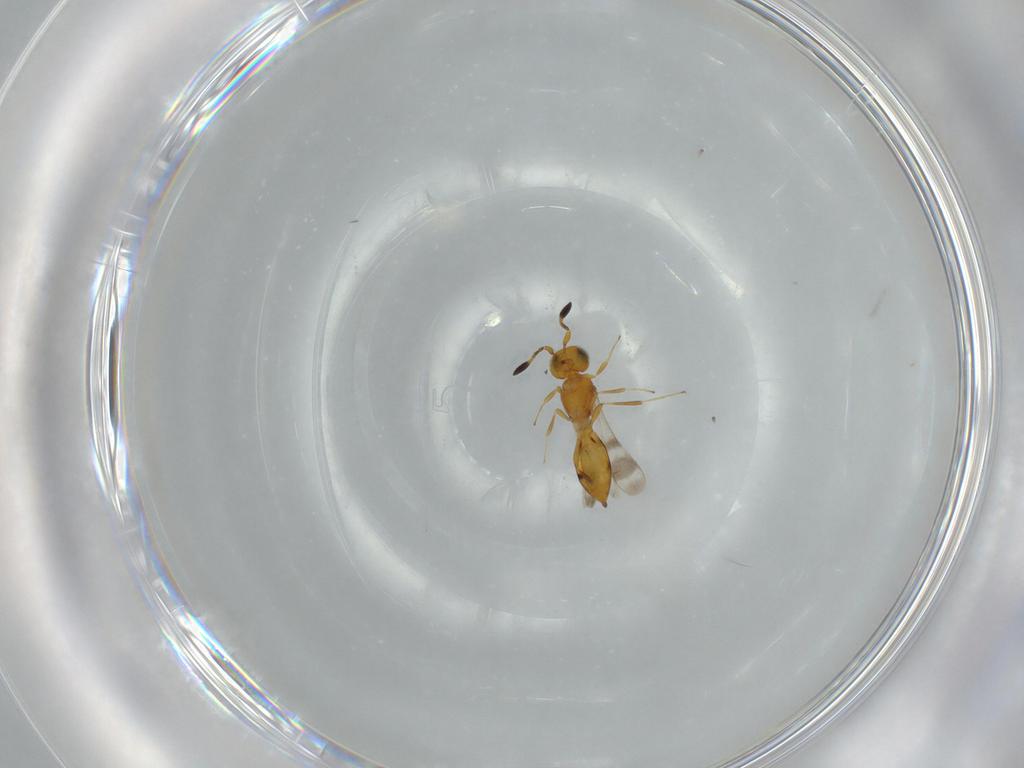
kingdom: Animalia
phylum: Arthropoda
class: Insecta
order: Hymenoptera
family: Scelionidae
